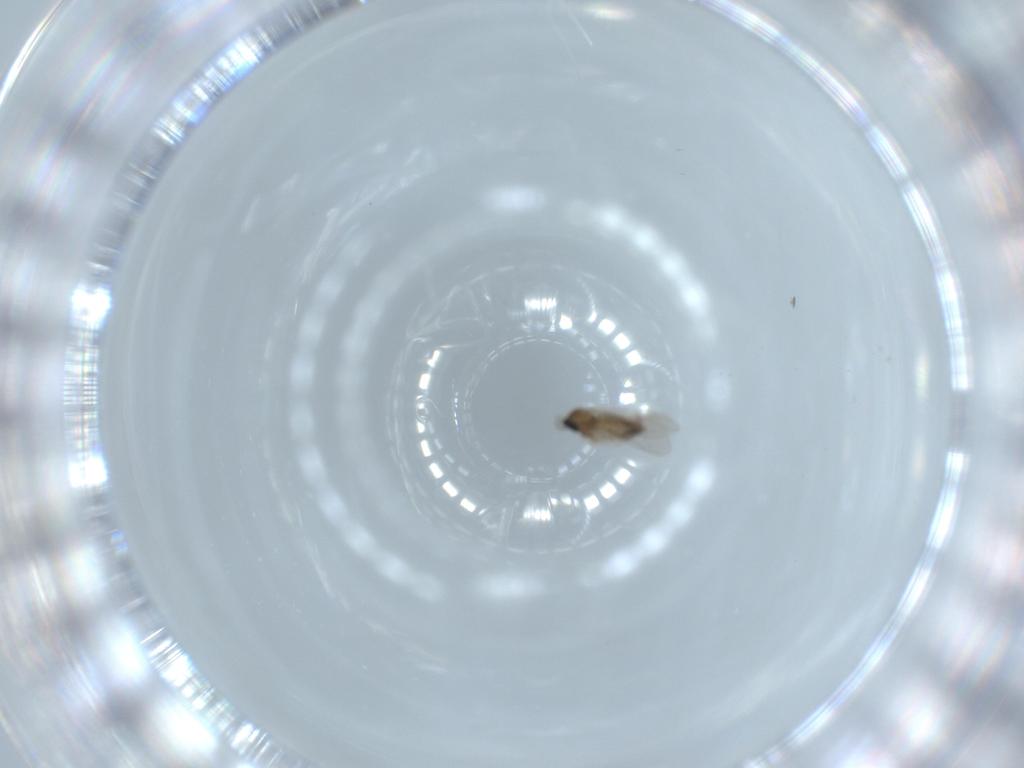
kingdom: Animalia
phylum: Arthropoda
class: Insecta
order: Diptera
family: Cecidomyiidae
